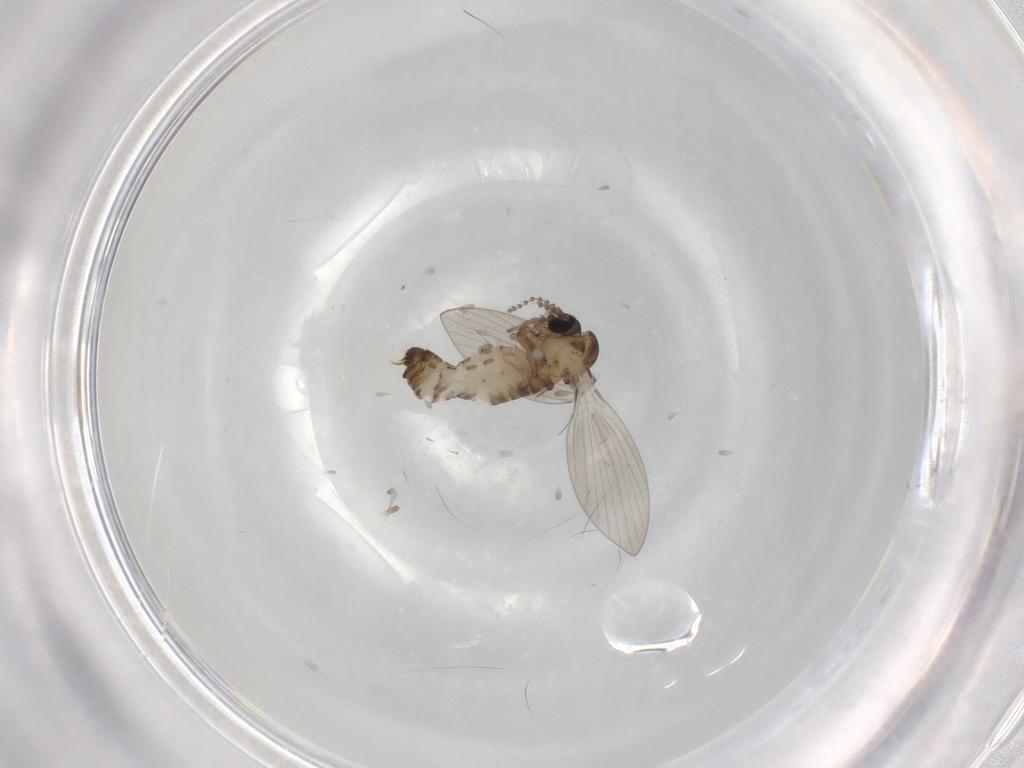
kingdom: Animalia
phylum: Arthropoda
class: Insecta
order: Diptera
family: Psychodidae
